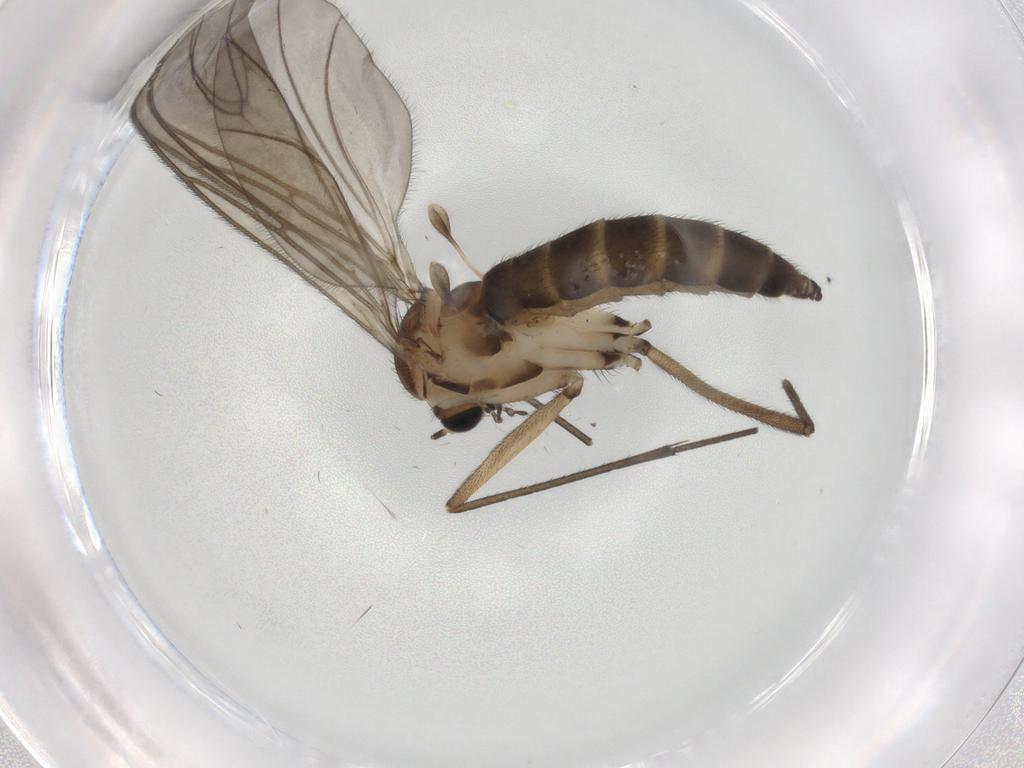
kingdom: Animalia
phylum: Arthropoda
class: Insecta
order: Diptera
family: Sciaridae
